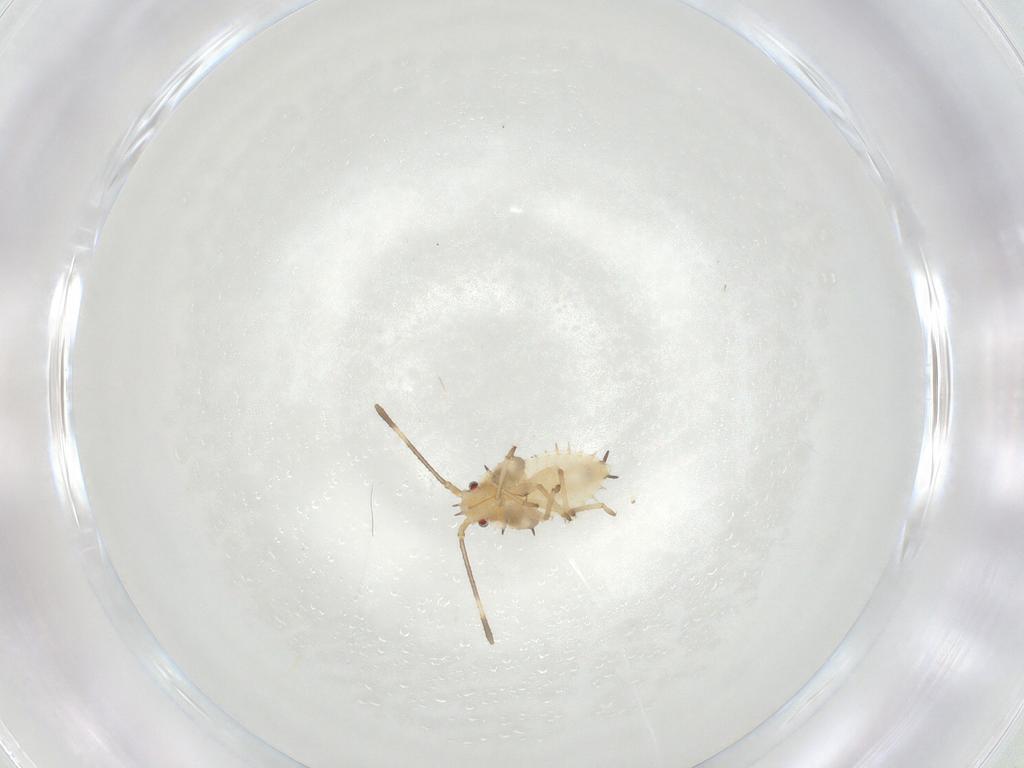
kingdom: Animalia
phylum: Arthropoda
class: Insecta
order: Hemiptera
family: Tingidae
